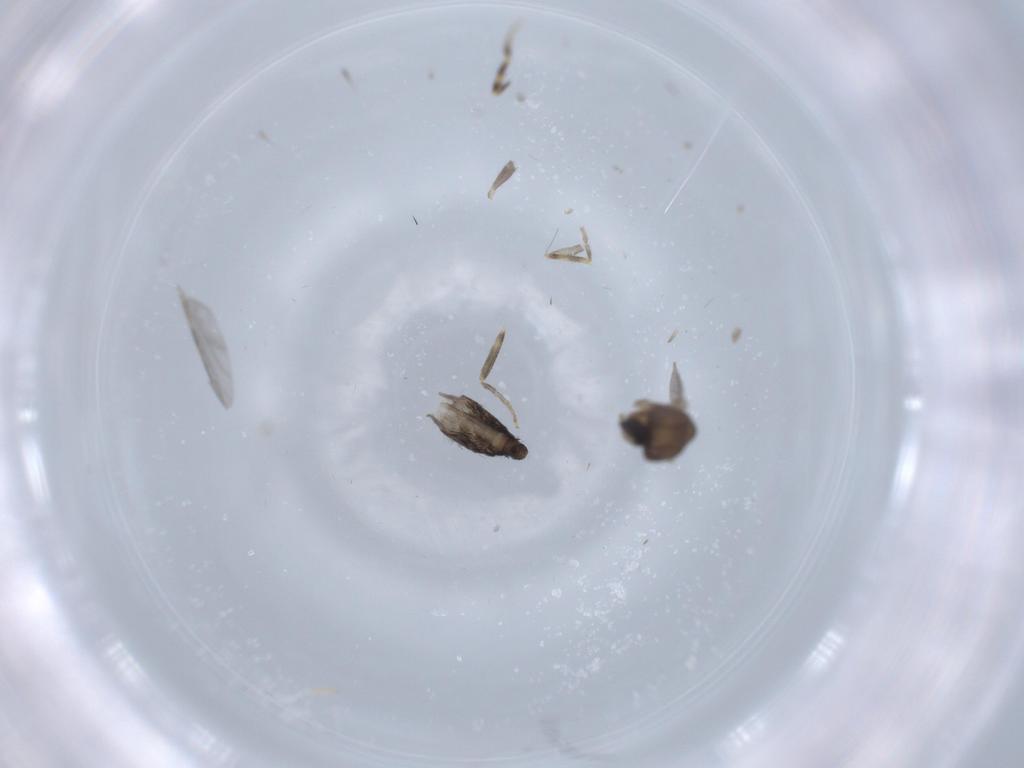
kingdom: Animalia
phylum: Arthropoda
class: Insecta
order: Diptera
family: Ceratopogonidae
